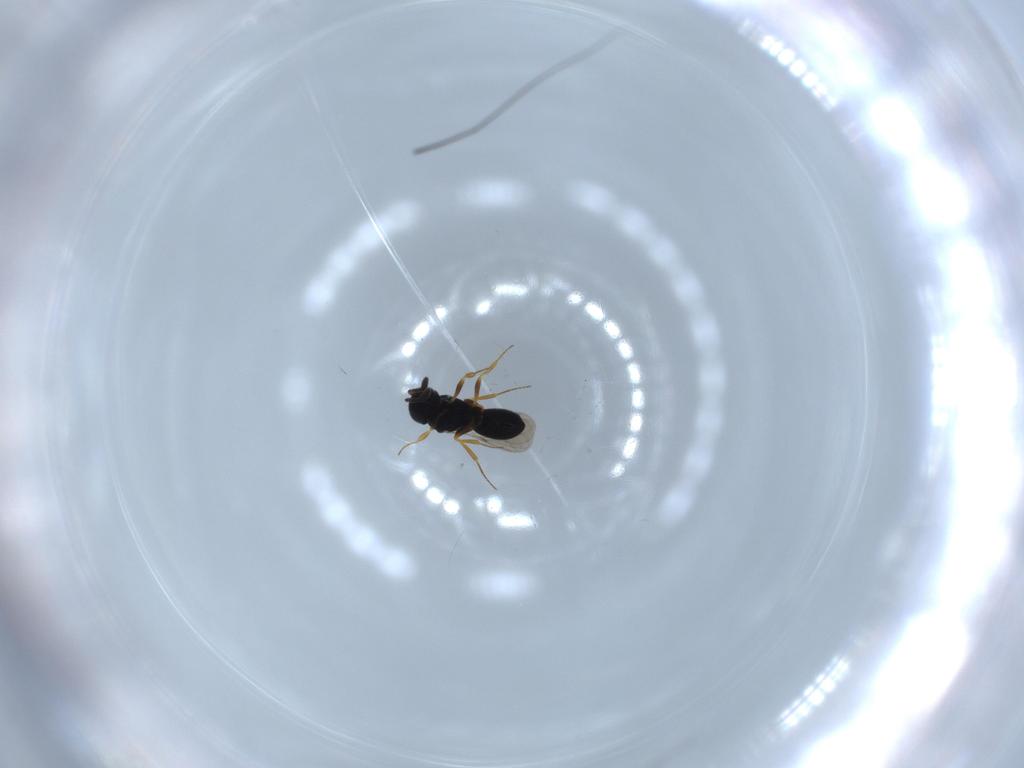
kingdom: Animalia
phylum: Arthropoda
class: Insecta
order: Hymenoptera
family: Scelionidae
